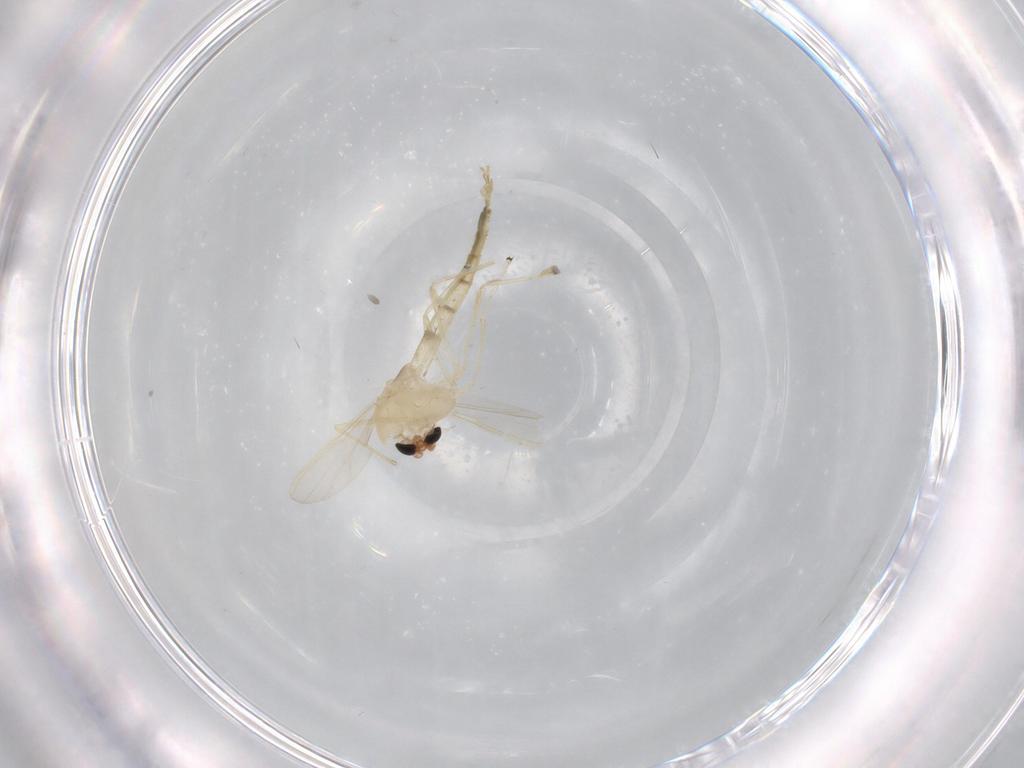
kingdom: Animalia
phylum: Arthropoda
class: Insecta
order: Diptera
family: Chironomidae
